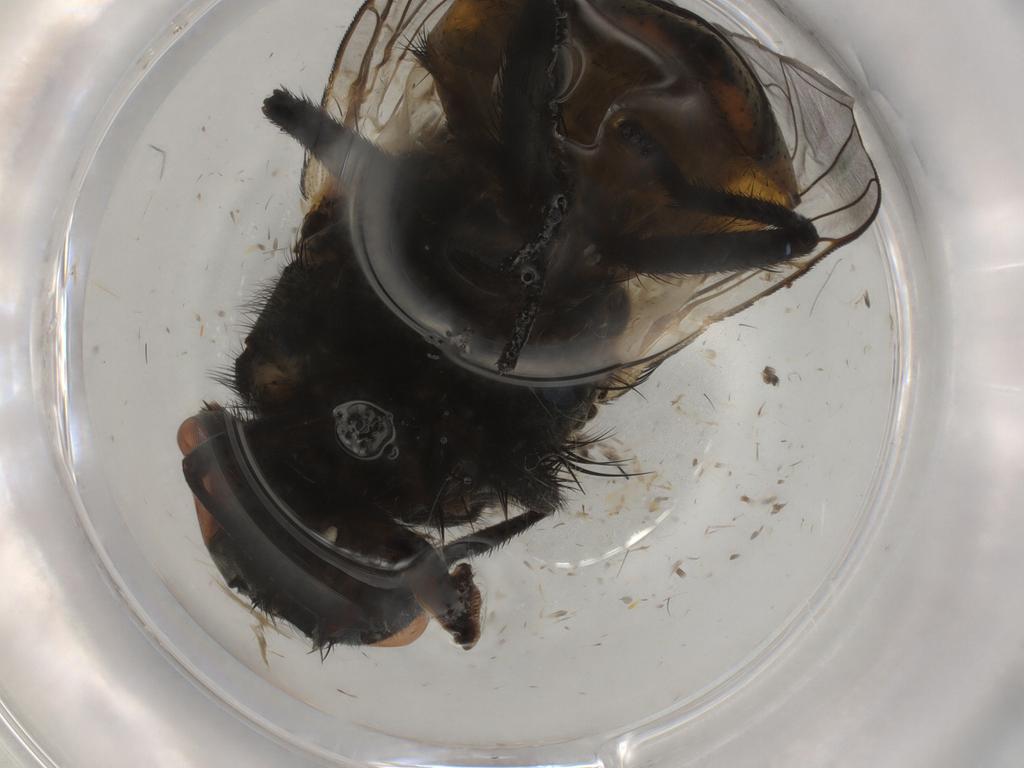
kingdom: Animalia
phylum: Arthropoda
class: Insecta
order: Diptera
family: Muscidae
